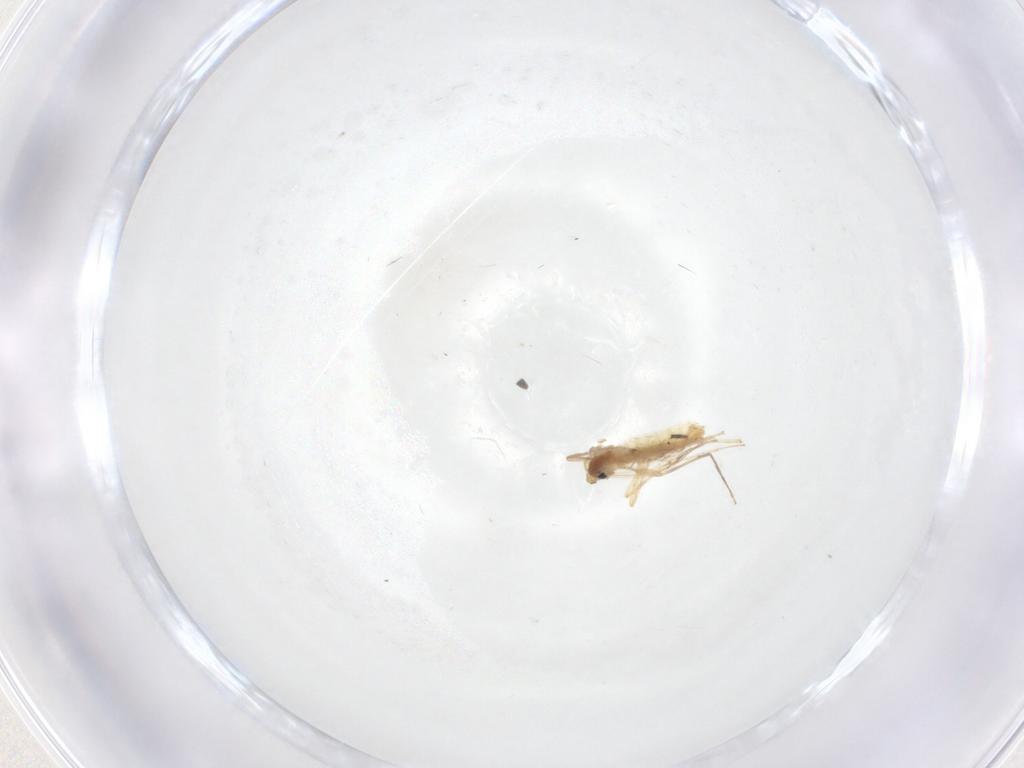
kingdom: Animalia
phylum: Arthropoda
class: Insecta
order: Diptera
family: Chironomidae
